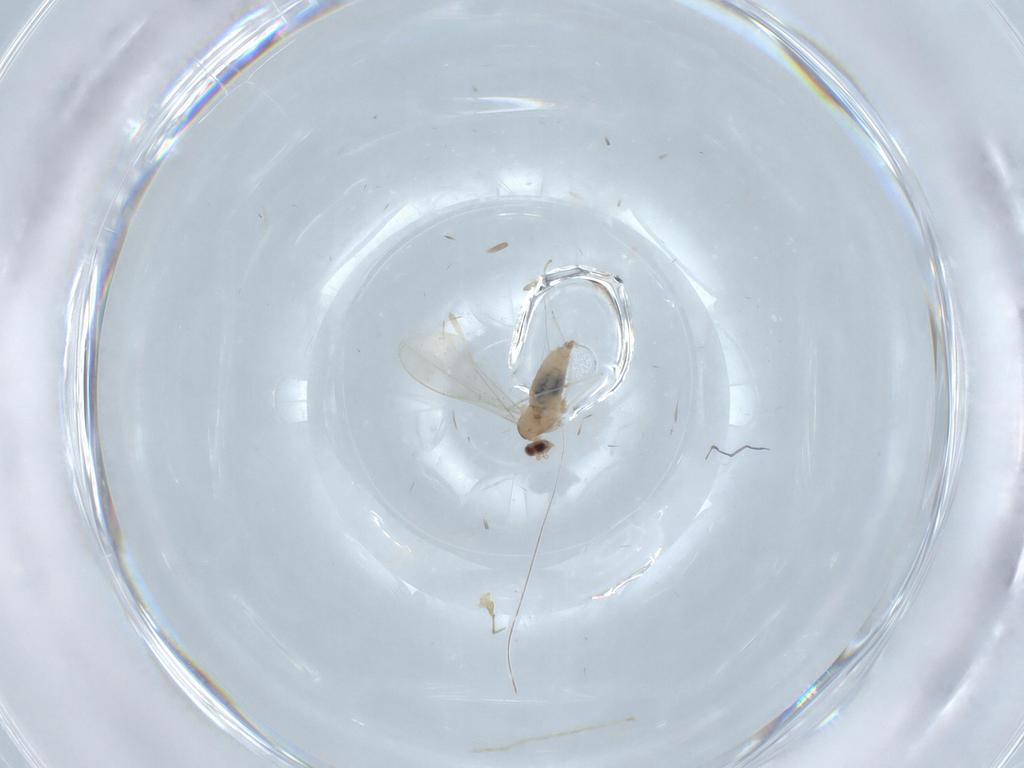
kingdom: Animalia
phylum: Arthropoda
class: Insecta
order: Diptera
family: Cecidomyiidae
